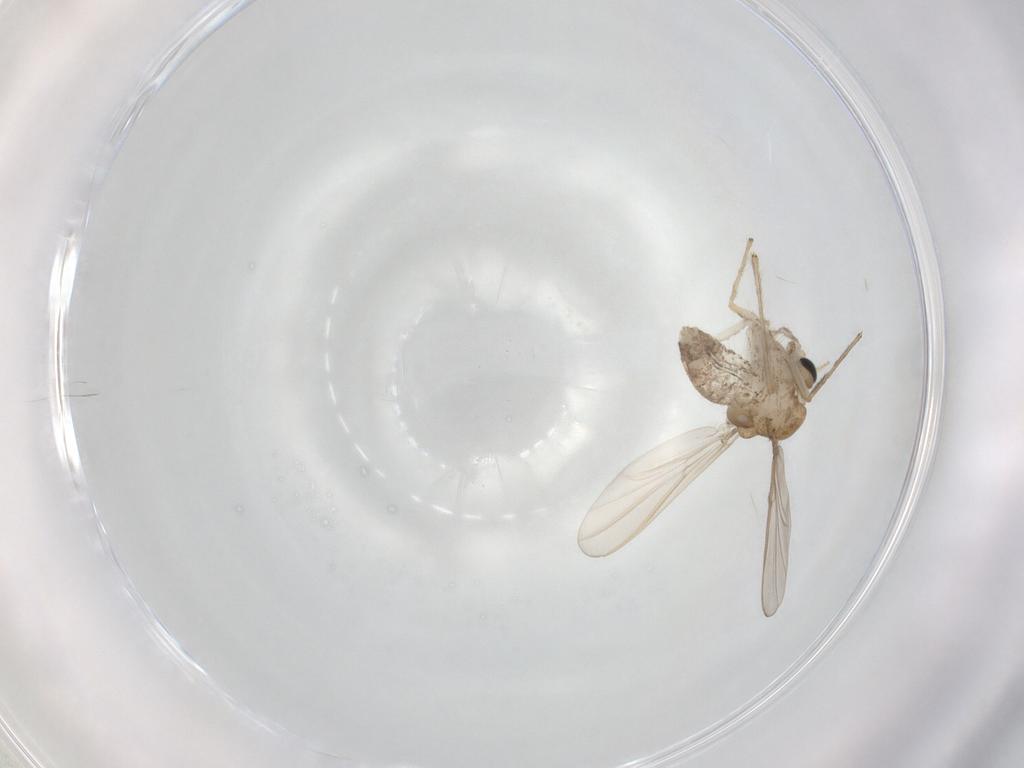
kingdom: Animalia
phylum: Arthropoda
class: Insecta
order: Diptera
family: Chironomidae
